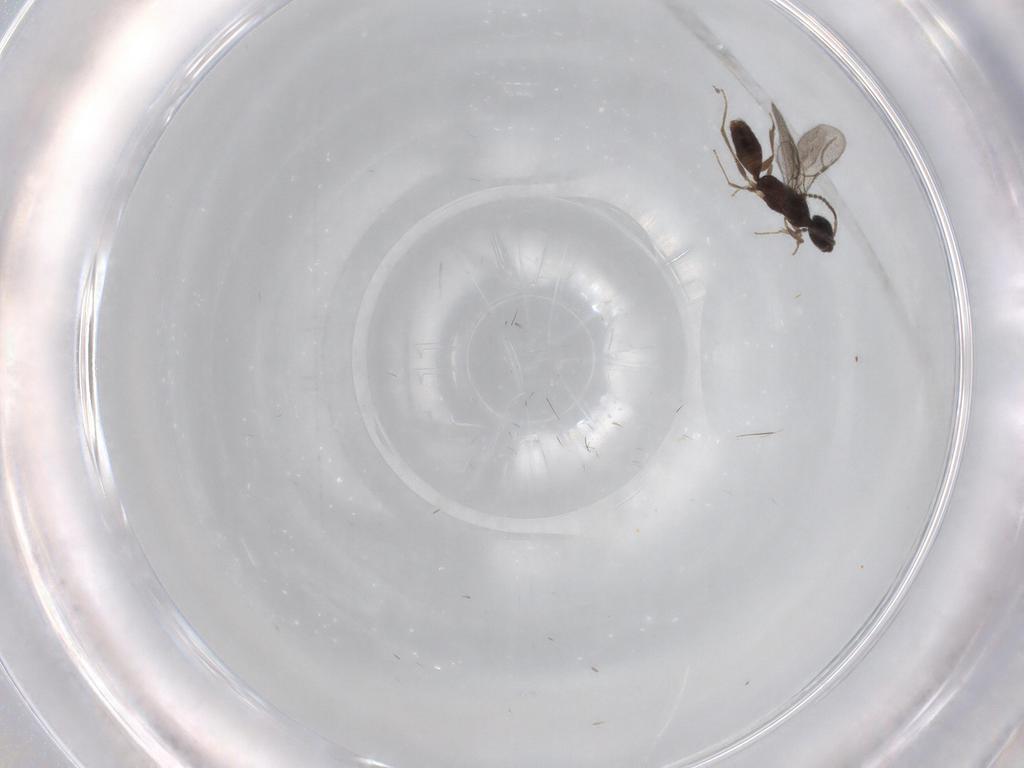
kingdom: Animalia
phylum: Arthropoda
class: Insecta
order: Hymenoptera
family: Bethylidae
